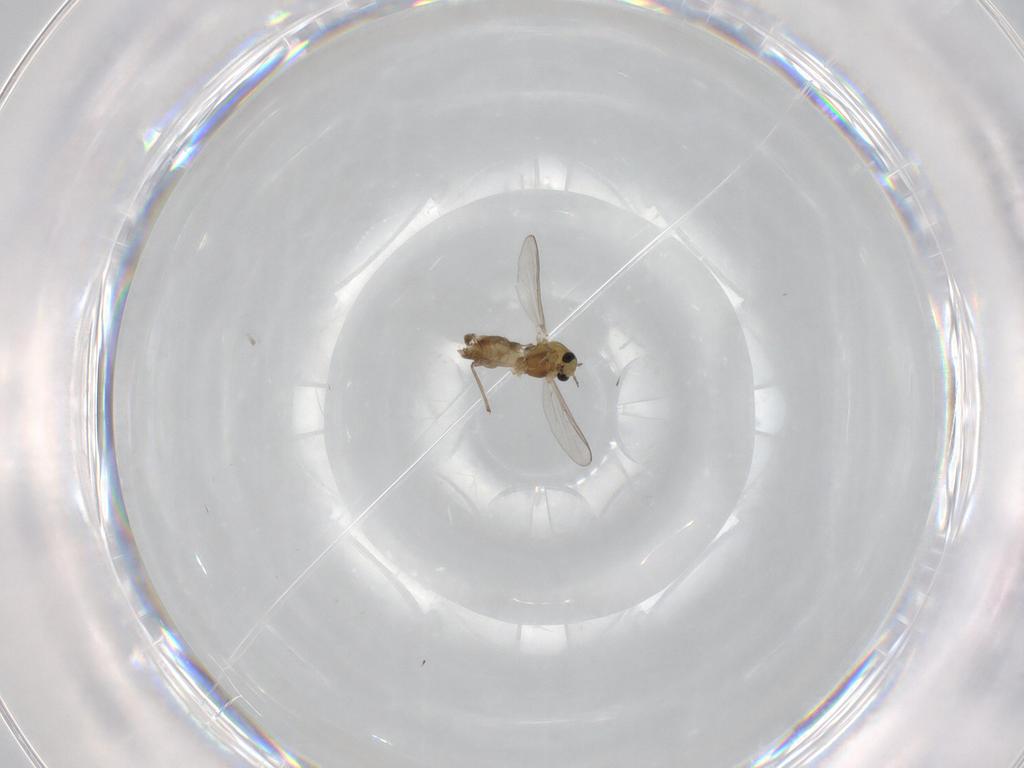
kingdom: Animalia
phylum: Arthropoda
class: Insecta
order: Diptera
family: Chironomidae
